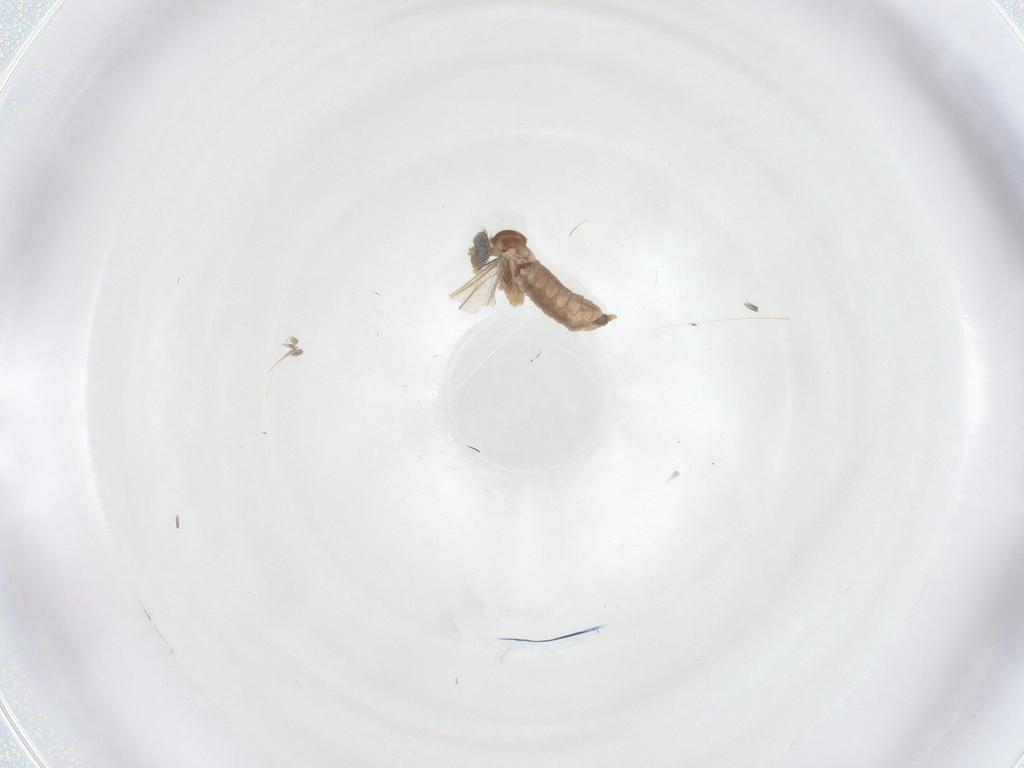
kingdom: Animalia
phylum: Arthropoda
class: Insecta
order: Diptera
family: Cecidomyiidae
